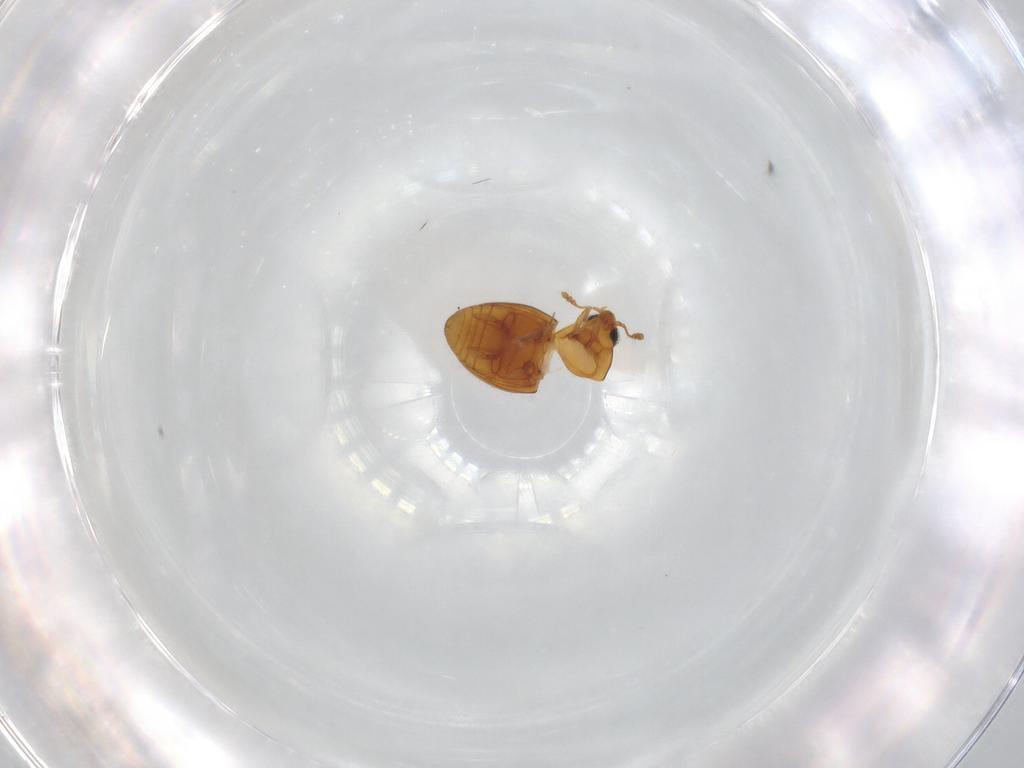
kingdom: Animalia
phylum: Arthropoda
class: Insecta
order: Coleoptera
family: Cryptophagidae
